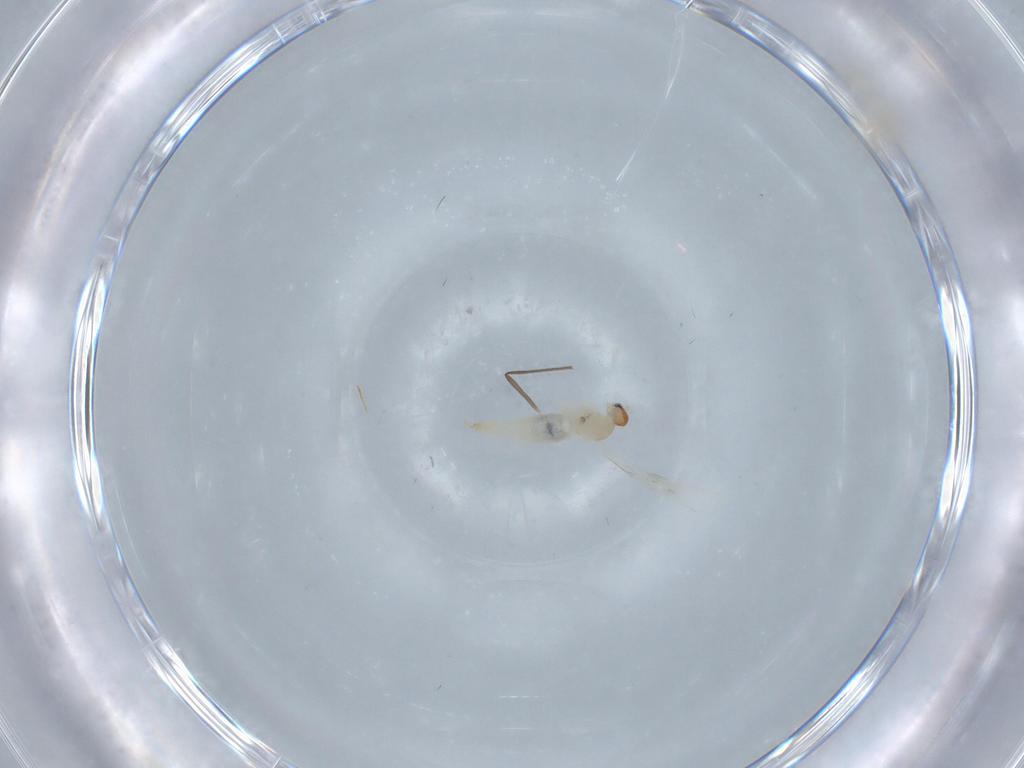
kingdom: Animalia
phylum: Arthropoda
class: Insecta
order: Diptera
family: Cecidomyiidae
